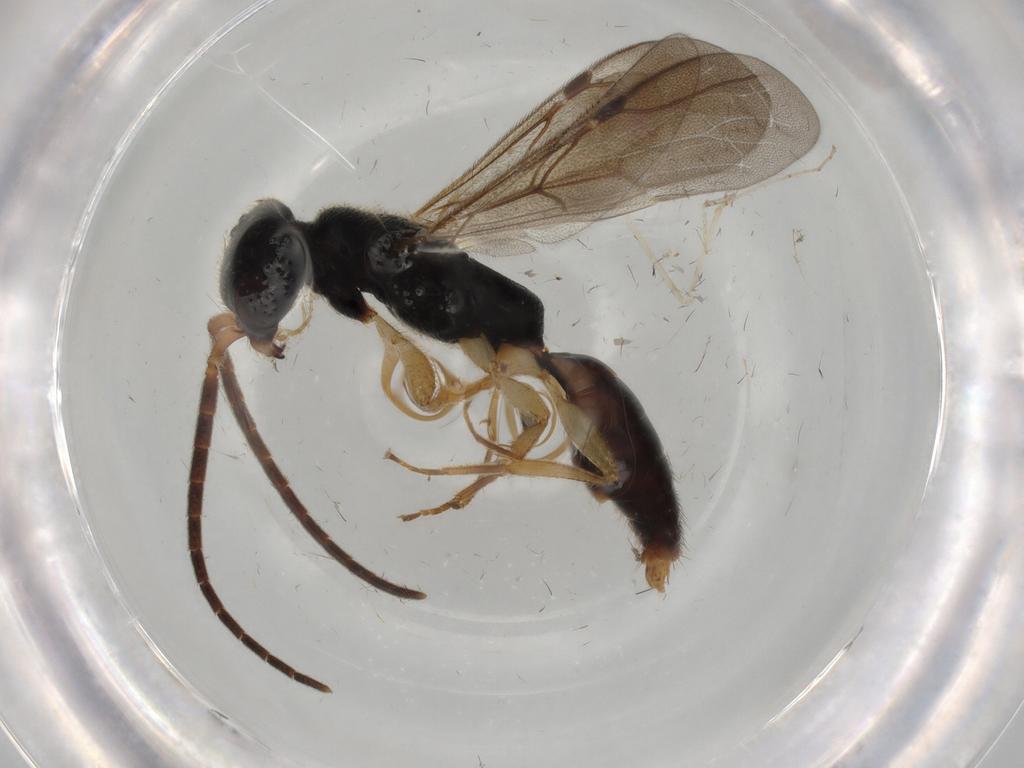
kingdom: Animalia
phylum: Arthropoda
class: Insecta
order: Hymenoptera
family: Bethylidae
